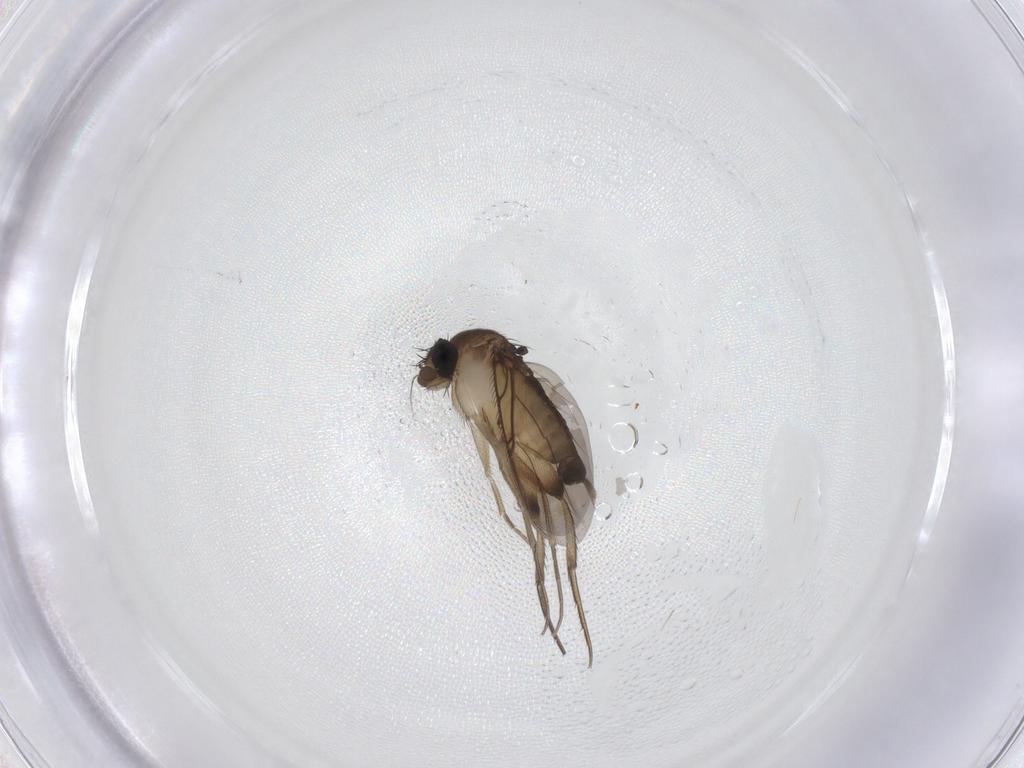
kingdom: Animalia
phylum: Arthropoda
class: Insecta
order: Diptera
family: Phoridae
